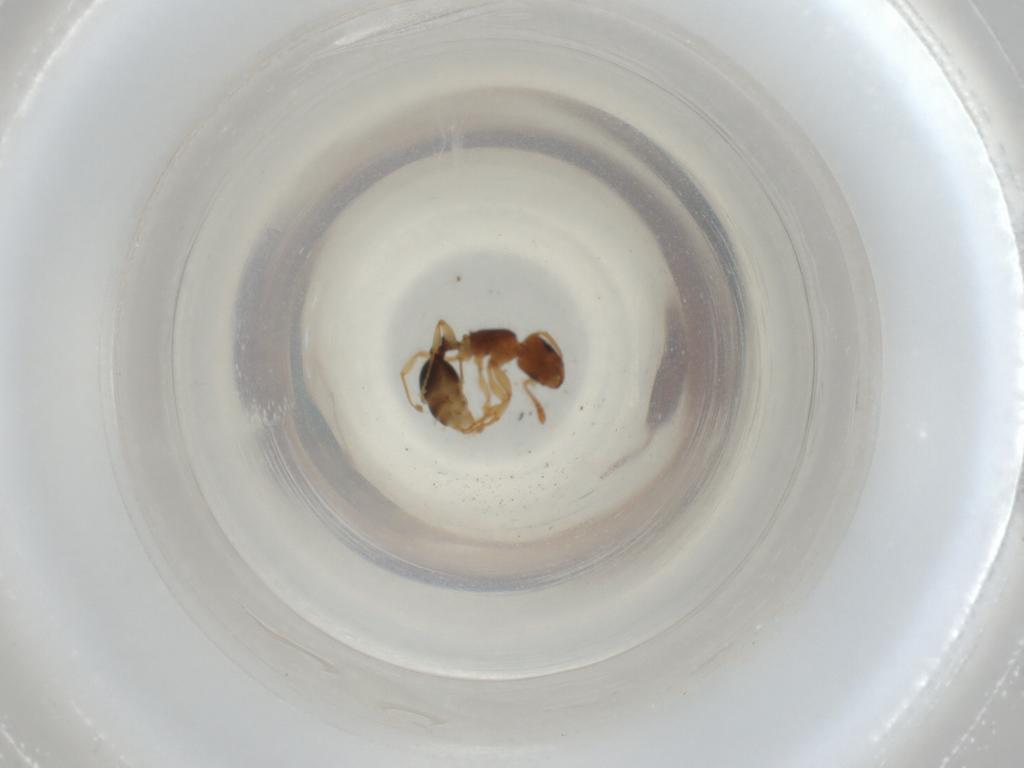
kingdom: Animalia
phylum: Arthropoda
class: Insecta
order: Hymenoptera
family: Formicidae
